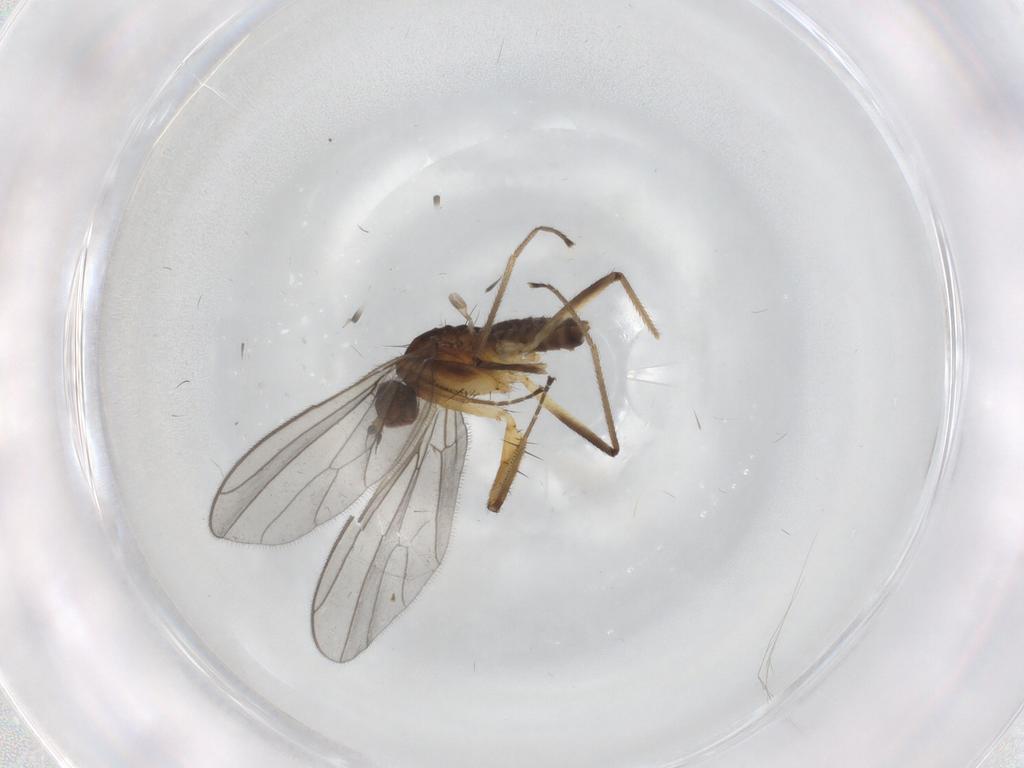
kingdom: Animalia
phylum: Arthropoda
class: Insecta
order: Diptera
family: Empididae
